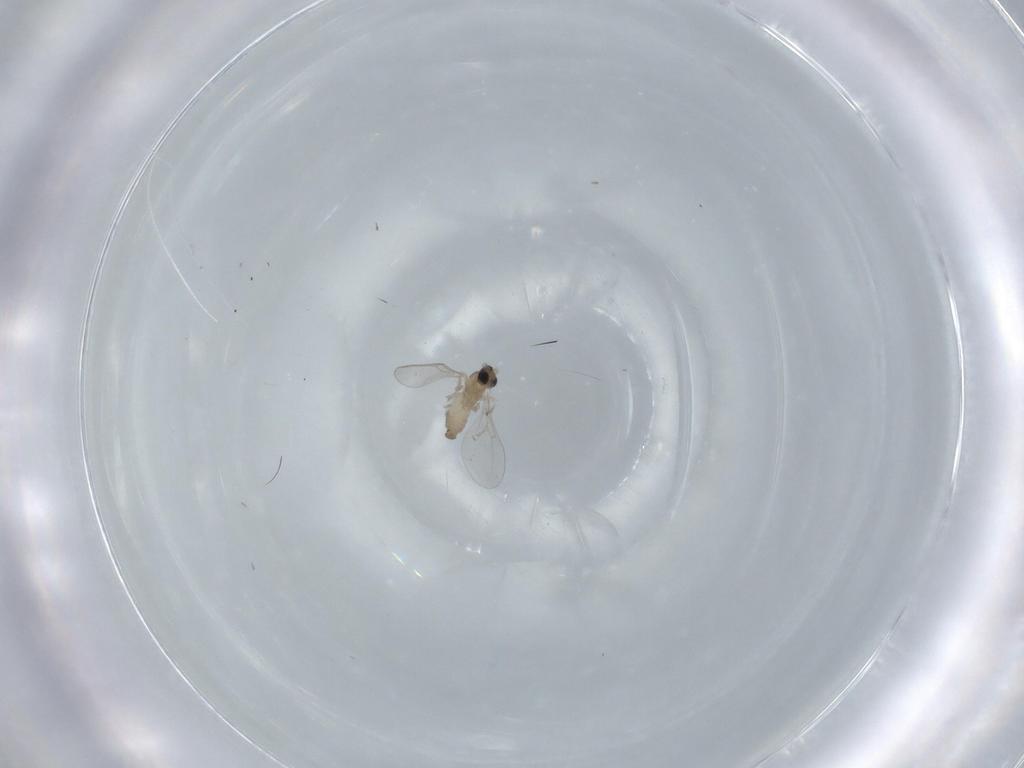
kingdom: Animalia
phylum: Arthropoda
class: Insecta
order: Diptera
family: Cecidomyiidae
